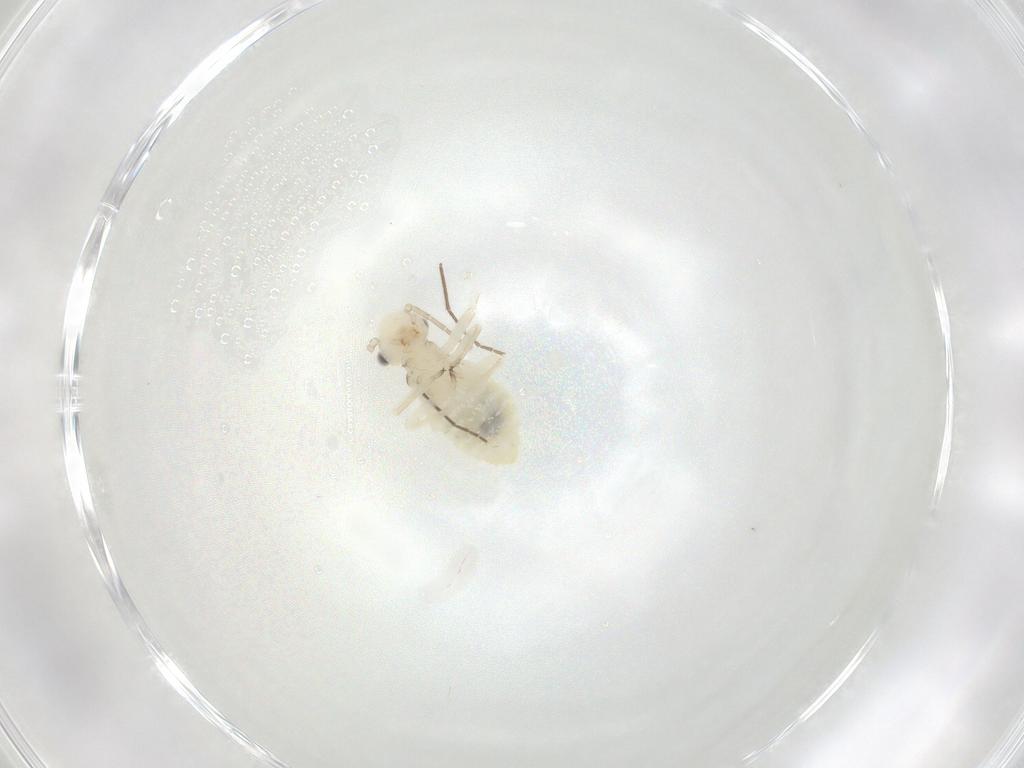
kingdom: Animalia
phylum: Arthropoda
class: Insecta
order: Psocodea
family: Stenopsocidae
